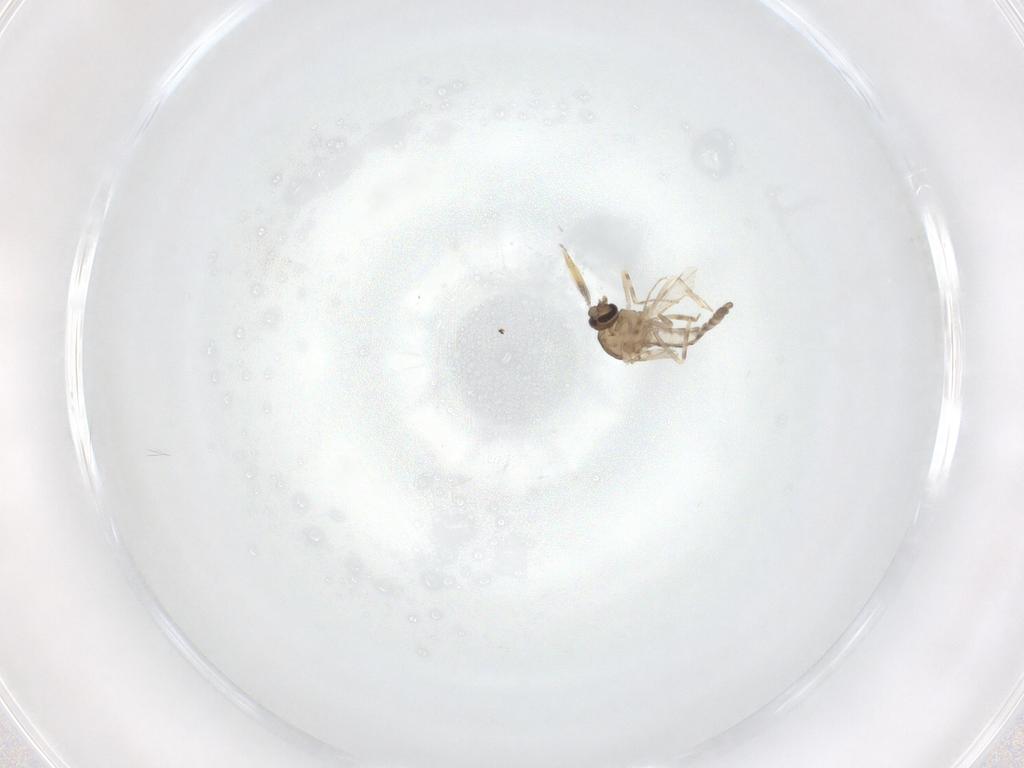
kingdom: Animalia
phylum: Arthropoda
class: Insecta
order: Diptera
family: Ceratopogonidae
